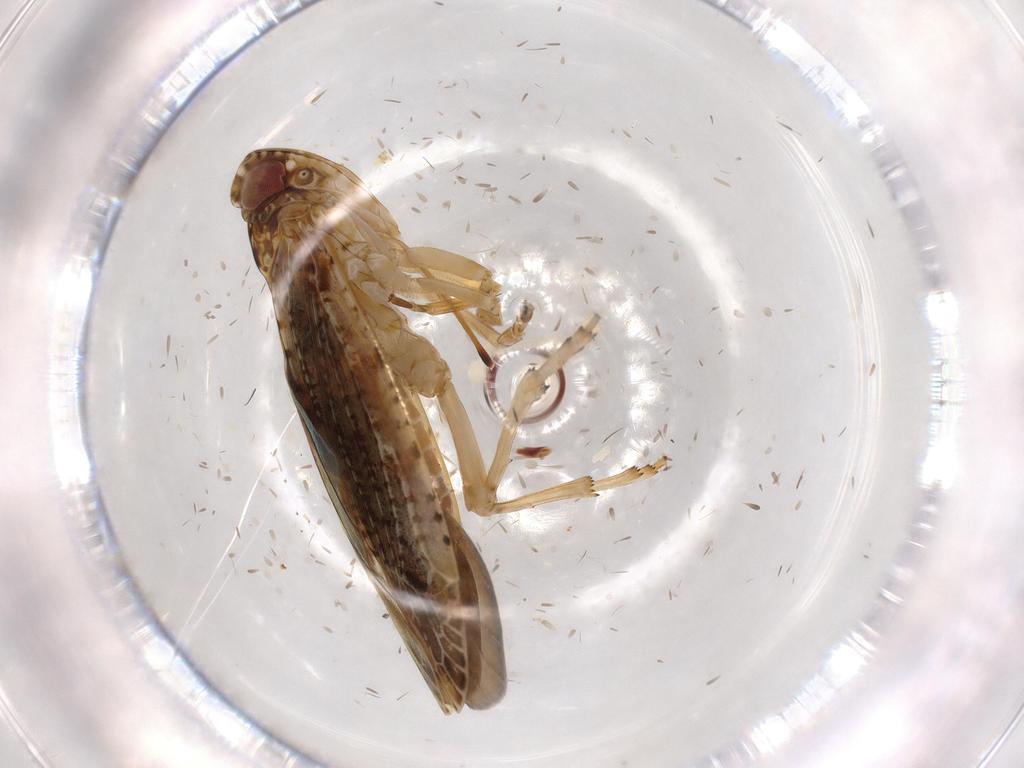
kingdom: Animalia
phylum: Arthropoda
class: Insecta
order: Hemiptera
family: Achilidae
